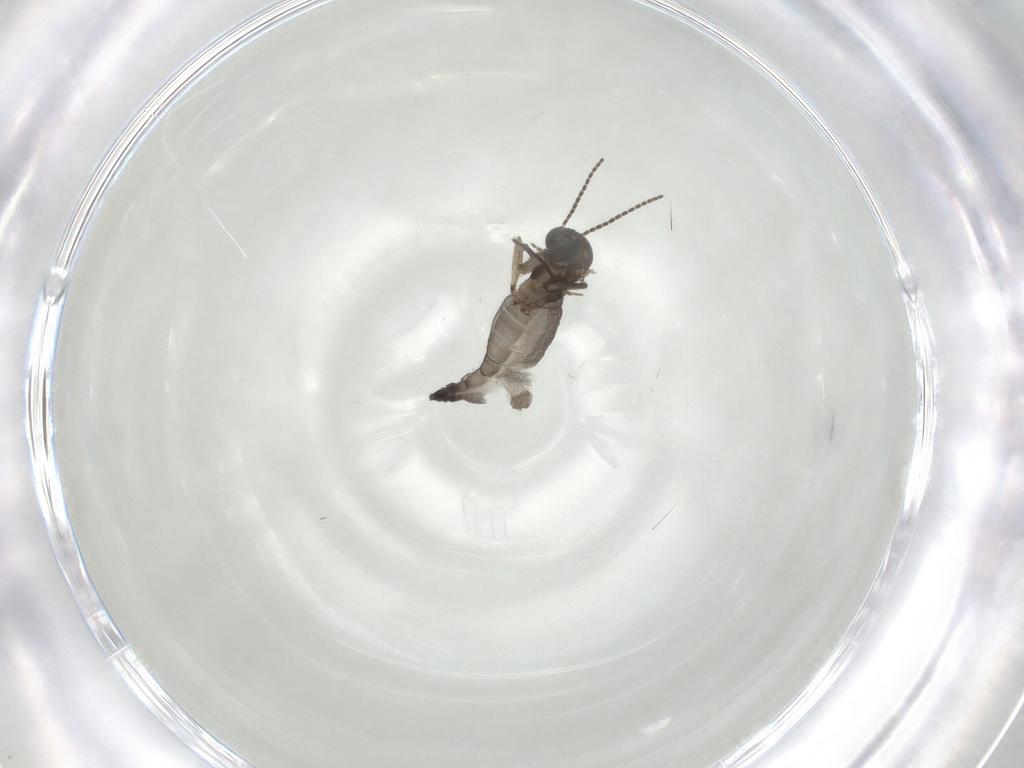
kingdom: Animalia
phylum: Arthropoda
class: Insecta
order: Diptera
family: Sciaridae
